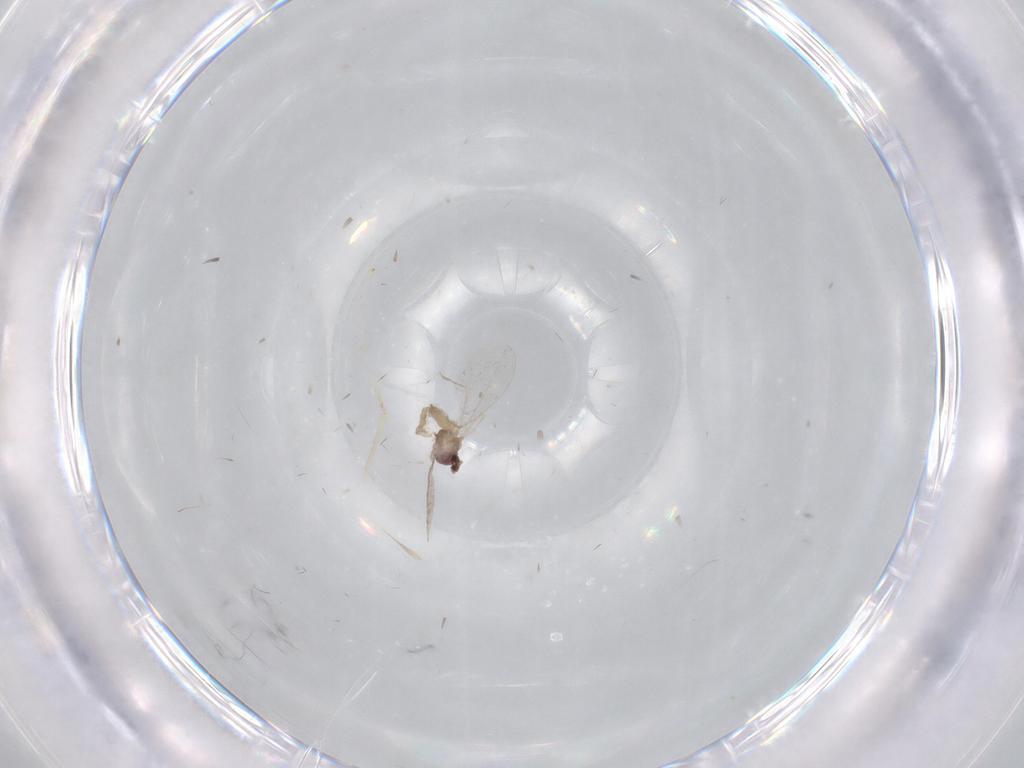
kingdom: Animalia
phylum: Arthropoda
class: Insecta
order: Diptera
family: Cecidomyiidae
